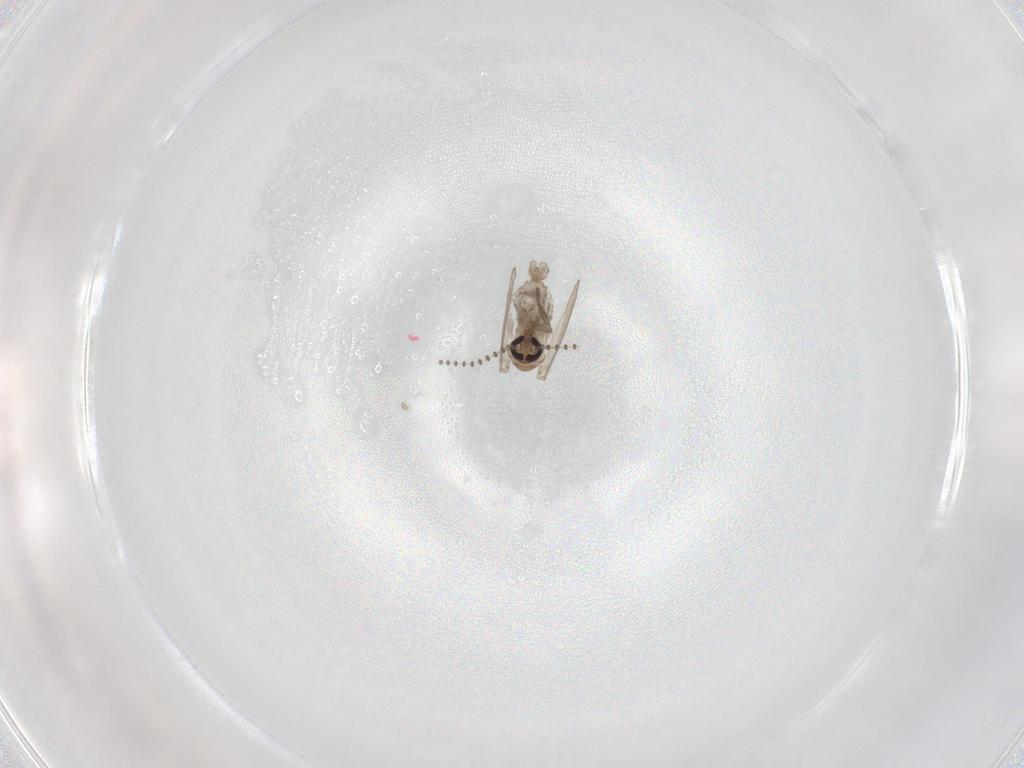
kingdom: Animalia
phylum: Arthropoda
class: Insecta
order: Diptera
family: Psychodidae
